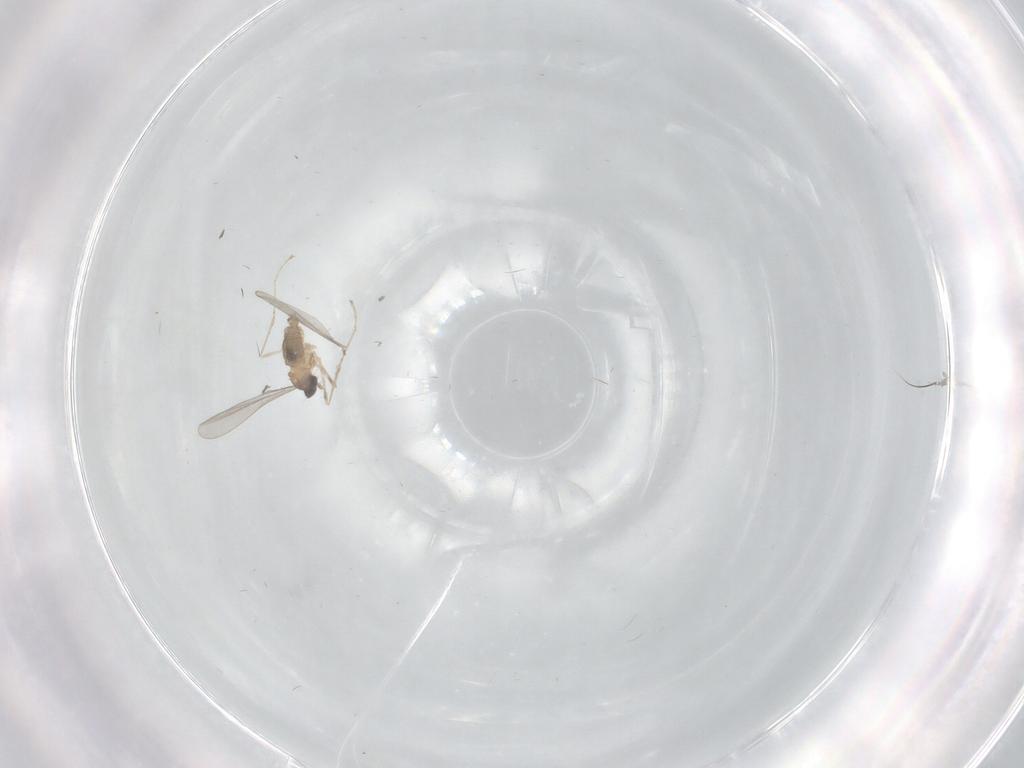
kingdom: Animalia
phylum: Arthropoda
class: Insecta
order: Diptera
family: Cecidomyiidae
